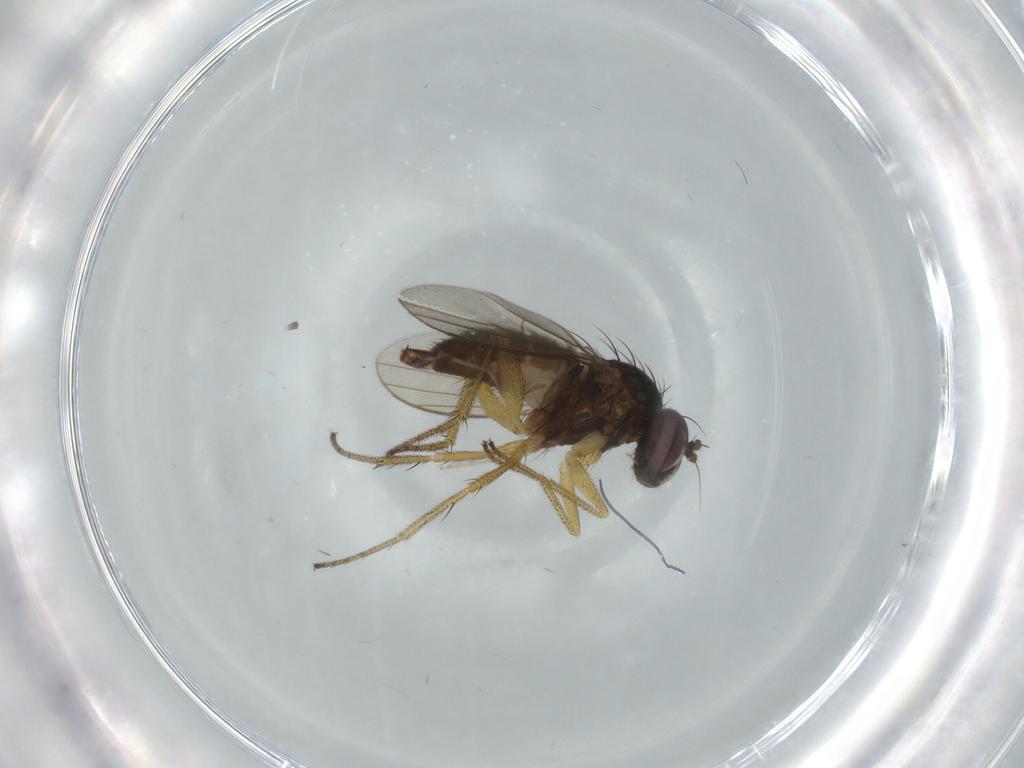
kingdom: Animalia
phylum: Arthropoda
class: Insecta
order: Diptera
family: Dolichopodidae
